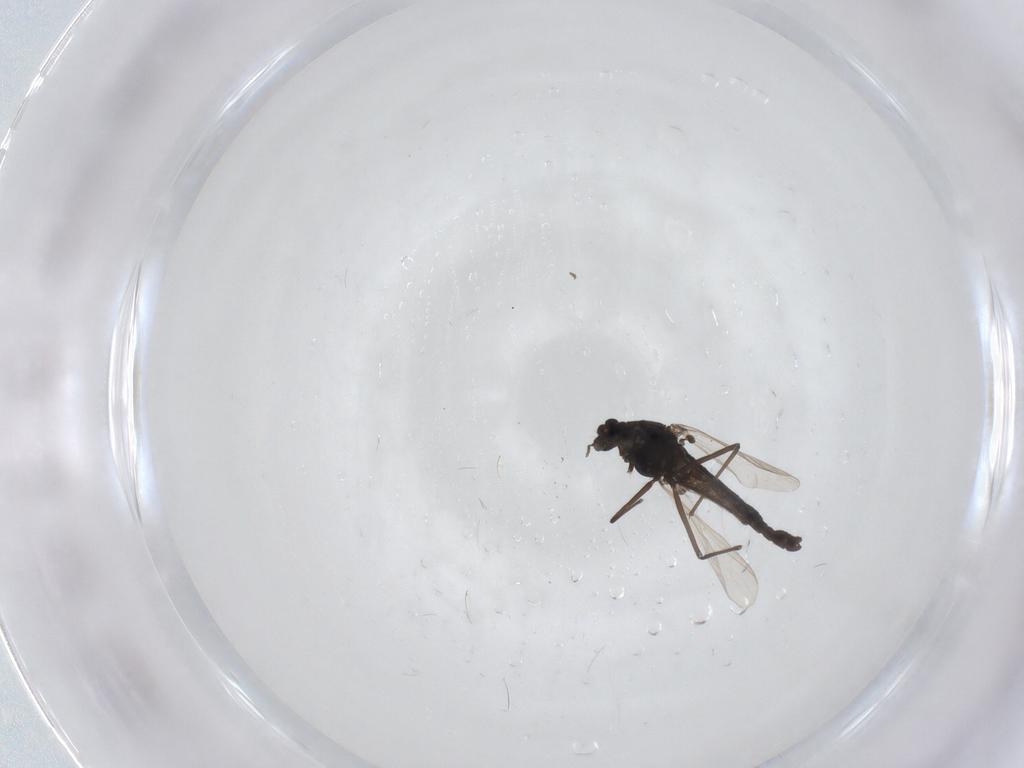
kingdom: Animalia
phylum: Arthropoda
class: Insecta
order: Diptera
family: Chironomidae
